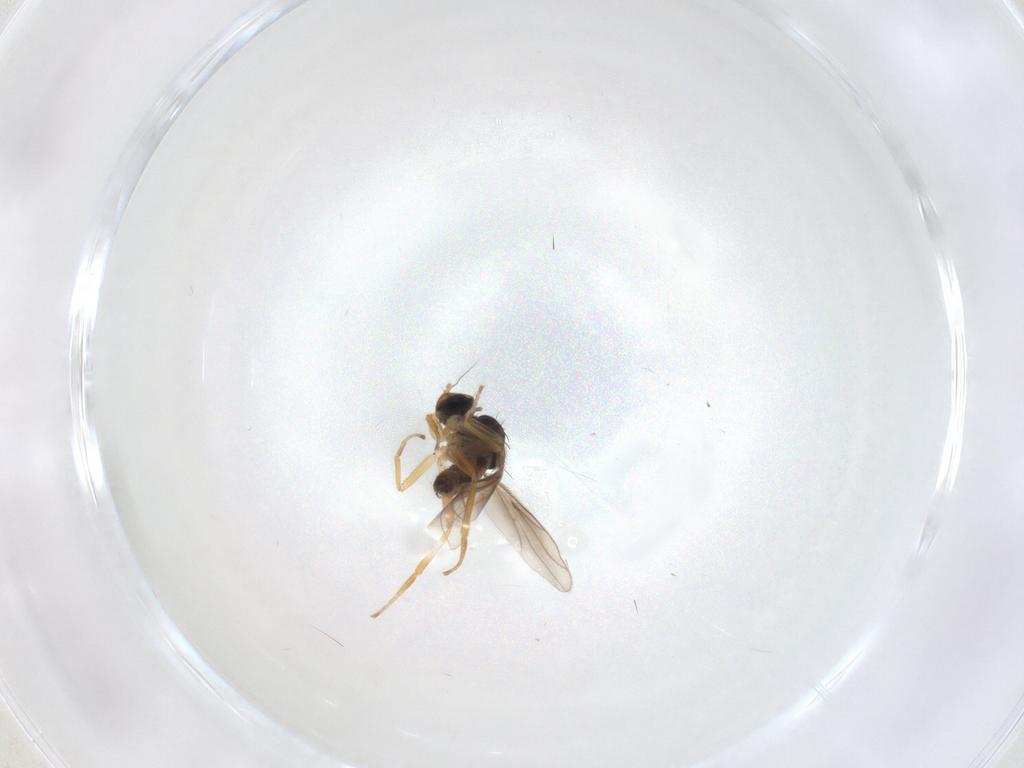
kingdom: Animalia
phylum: Arthropoda
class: Insecta
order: Diptera
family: Hybotidae
